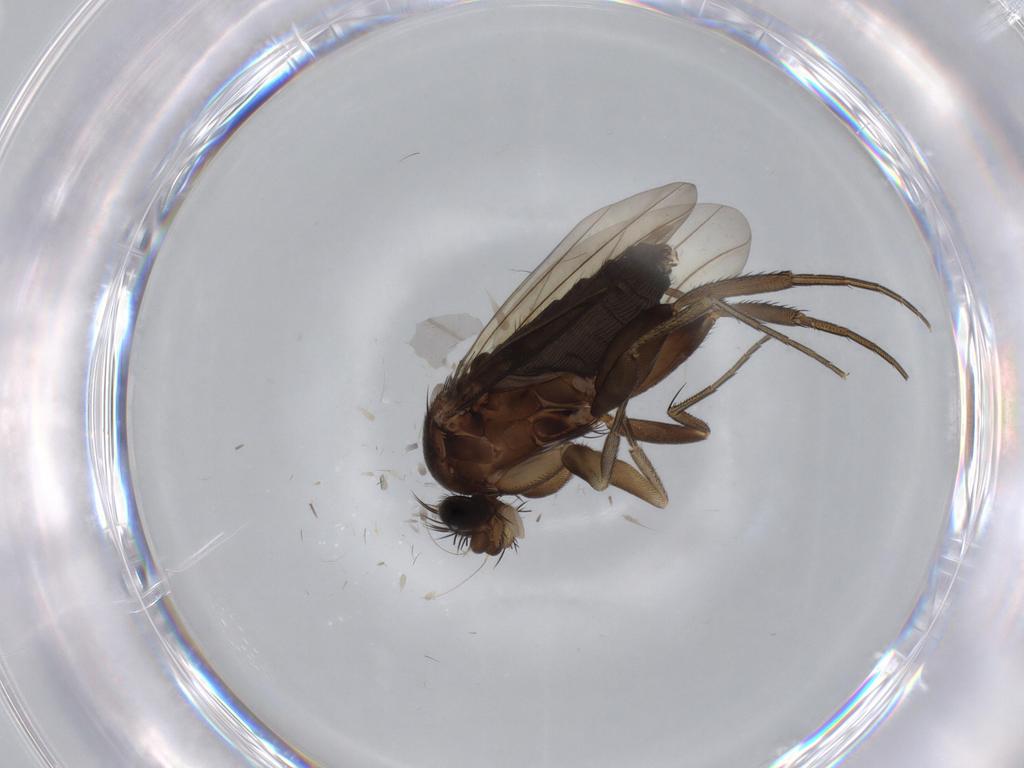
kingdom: Animalia
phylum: Arthropoda
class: Insecta
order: Diptera
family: Phoridae
